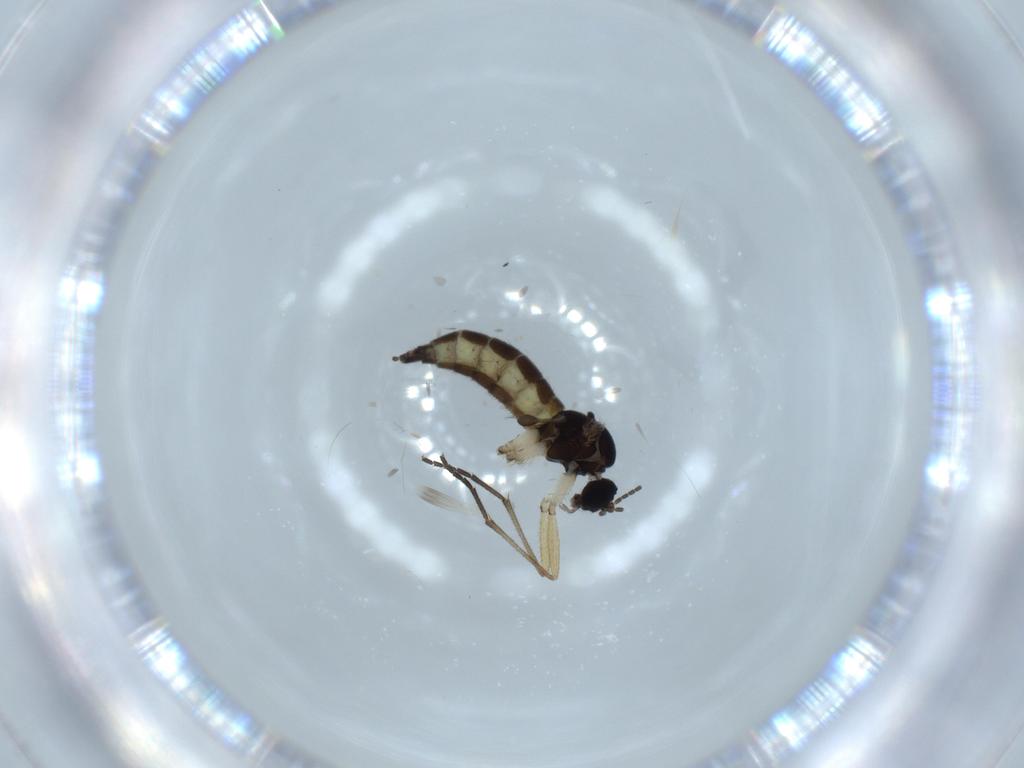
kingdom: Animalia
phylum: Arthropoda
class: Insecta
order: Diptera
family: Sciaridae
